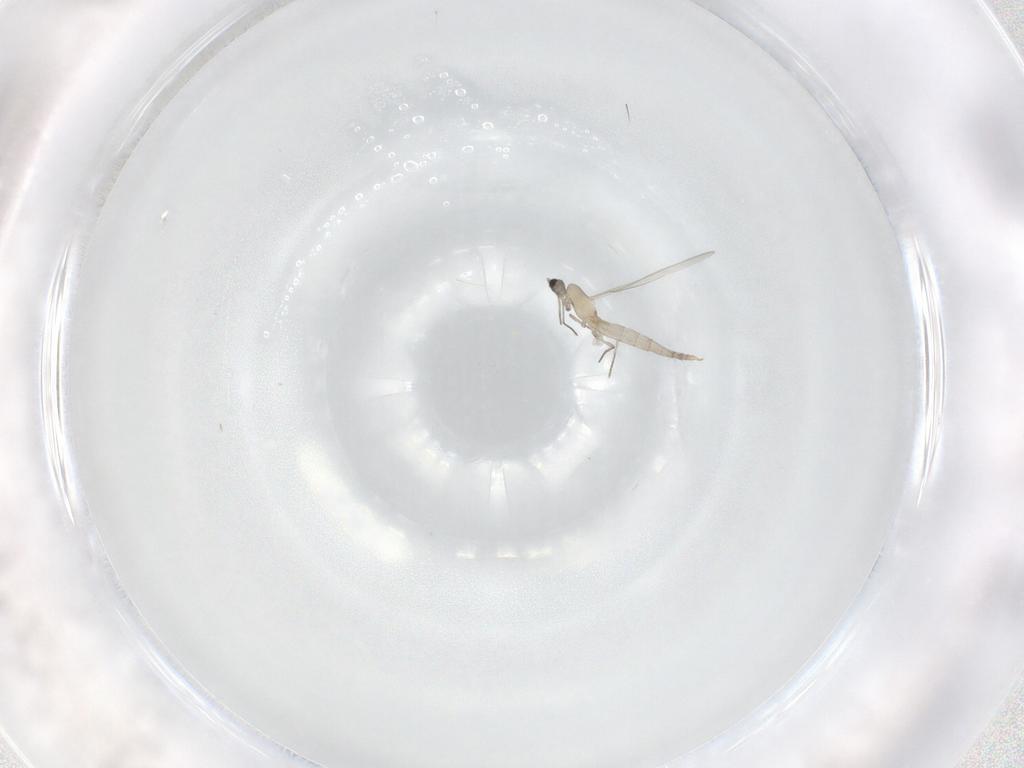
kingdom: Animalia
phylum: Arthropoda
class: Insecta
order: Diptera
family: Cecidomyiidae
